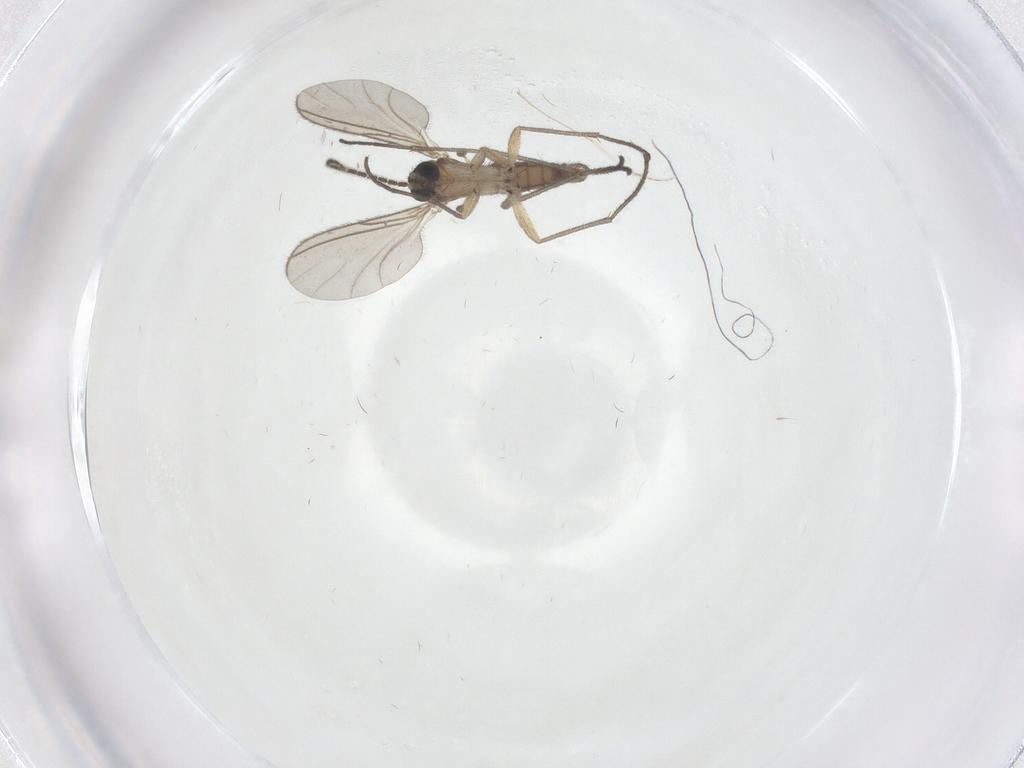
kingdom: Animalia
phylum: Arthropoda
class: Insecta
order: Diptera
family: Sciaridae
